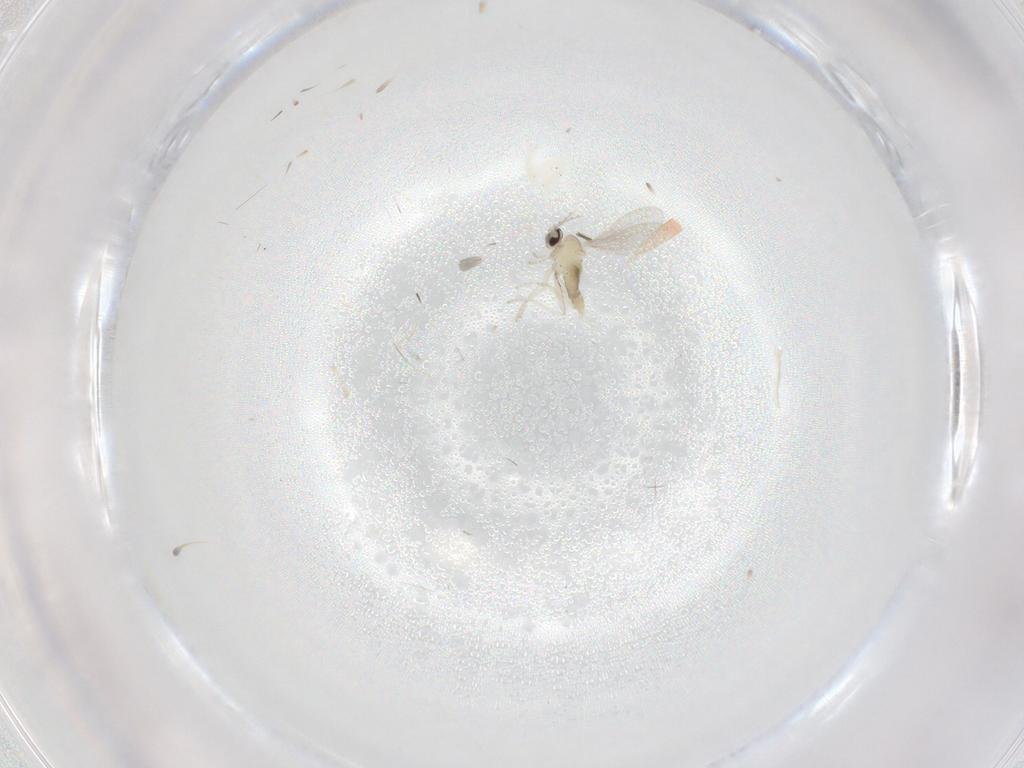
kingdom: Animalia
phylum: Arthropoda
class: Insecta
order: Diptera
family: Cecidomyiidae
